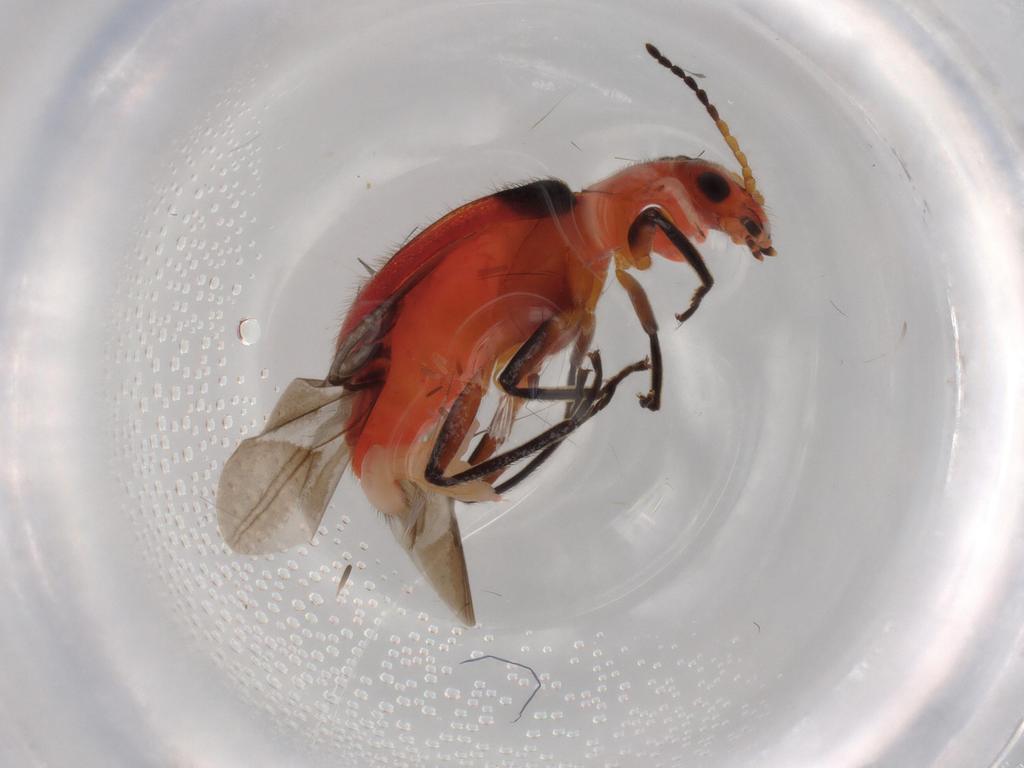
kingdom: Animalia
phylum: Arthropoda
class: Insecta
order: Coleoptera
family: Melyridae
